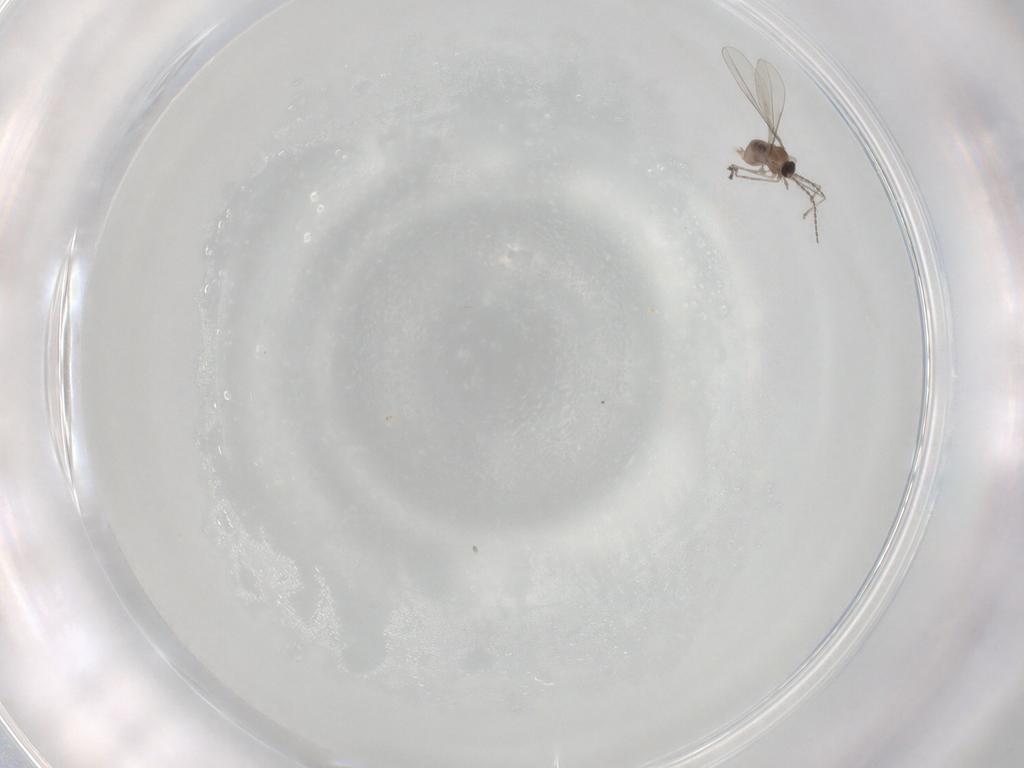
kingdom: Animalia
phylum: Arthropoda
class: Insecta
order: Diptera
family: Cecidomyiidae
